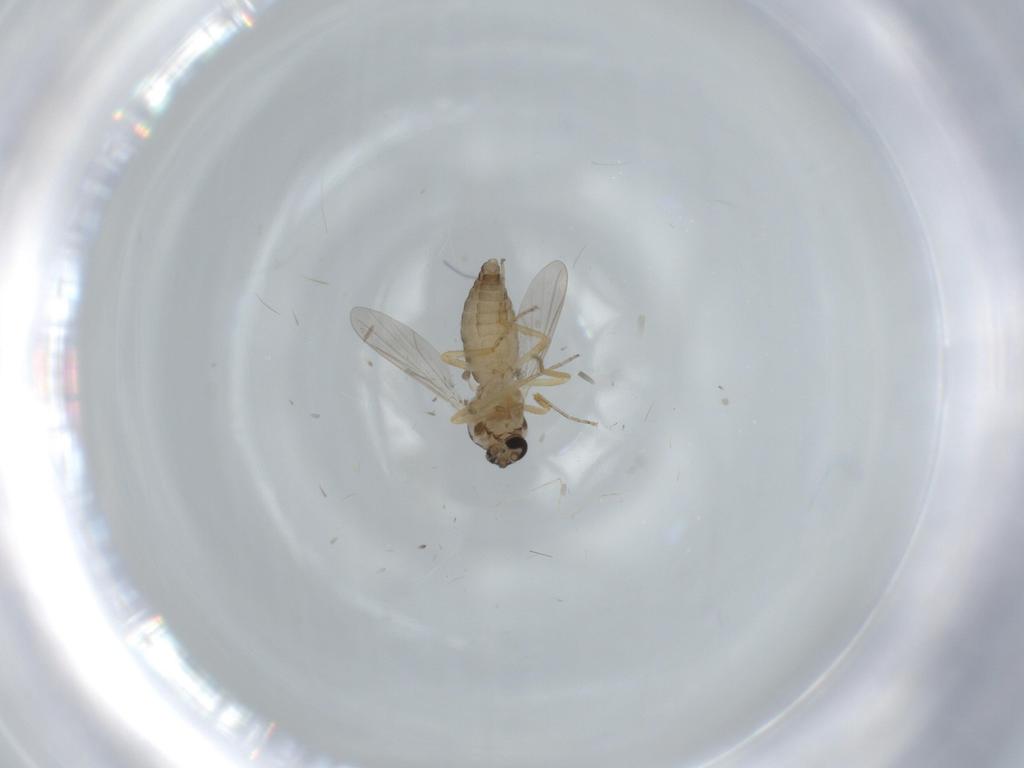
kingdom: Animalia
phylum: Arthropoda
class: Insecta
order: Diptera
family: Ceratopogonidae
